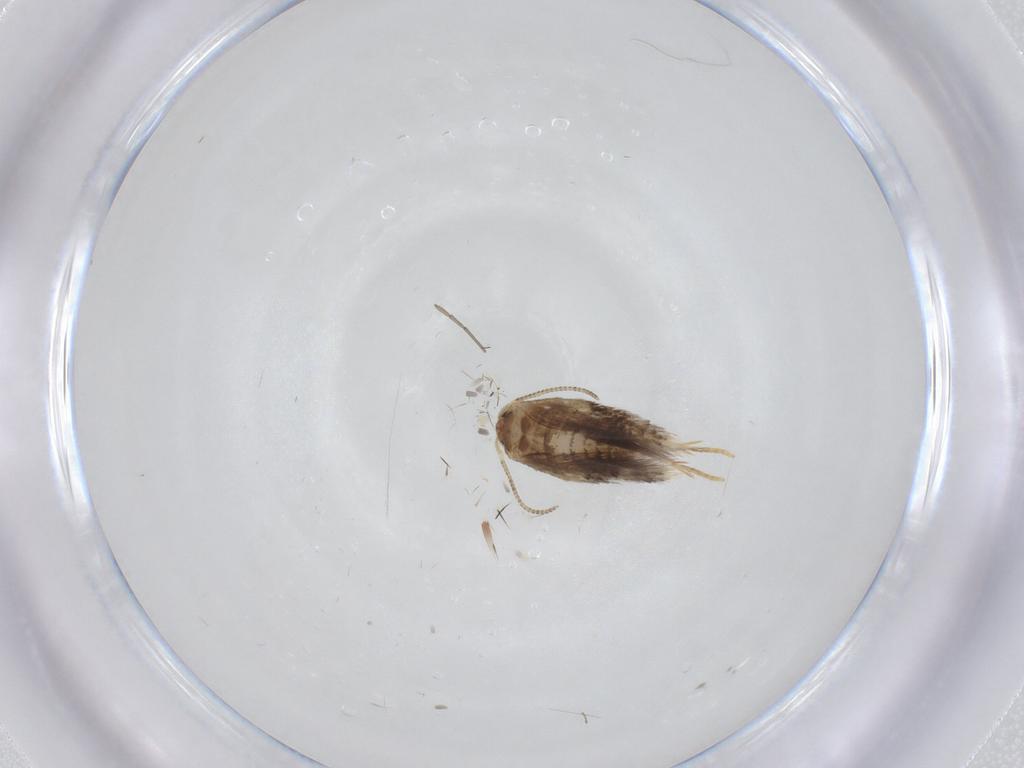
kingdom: Animalia
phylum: Arthropoda
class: Insecta
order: Lepidoptera
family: Nepticulidae
